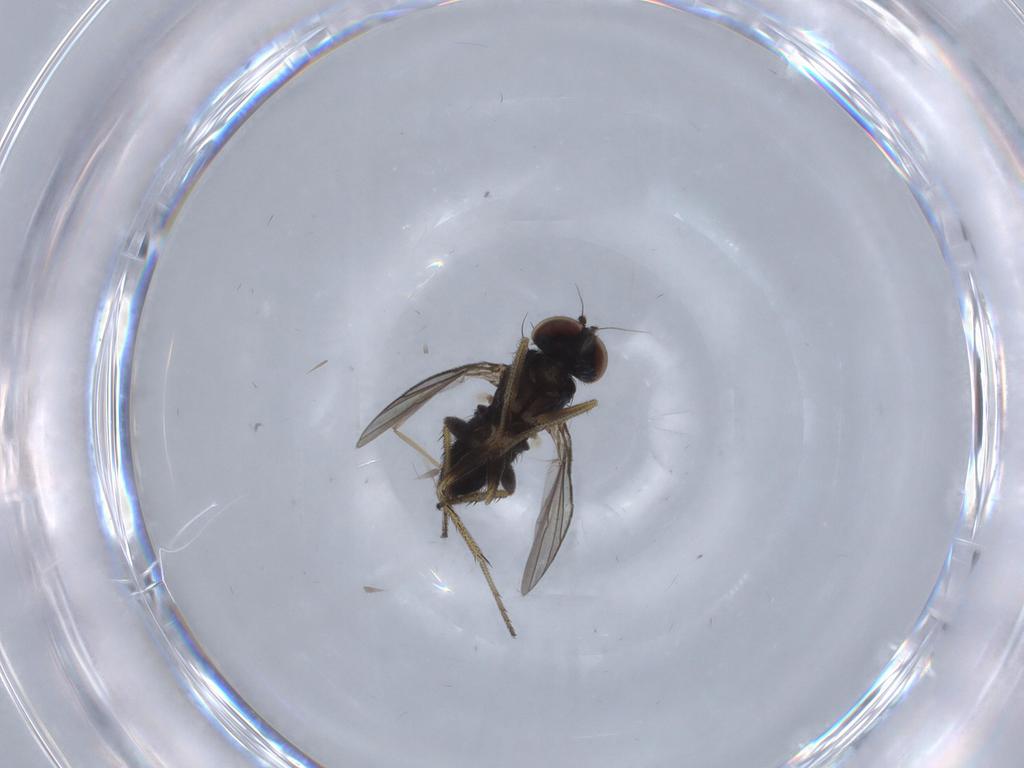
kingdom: Animalia
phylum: Arthropoda
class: Insecta
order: Diptera
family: Dolichopodidae
